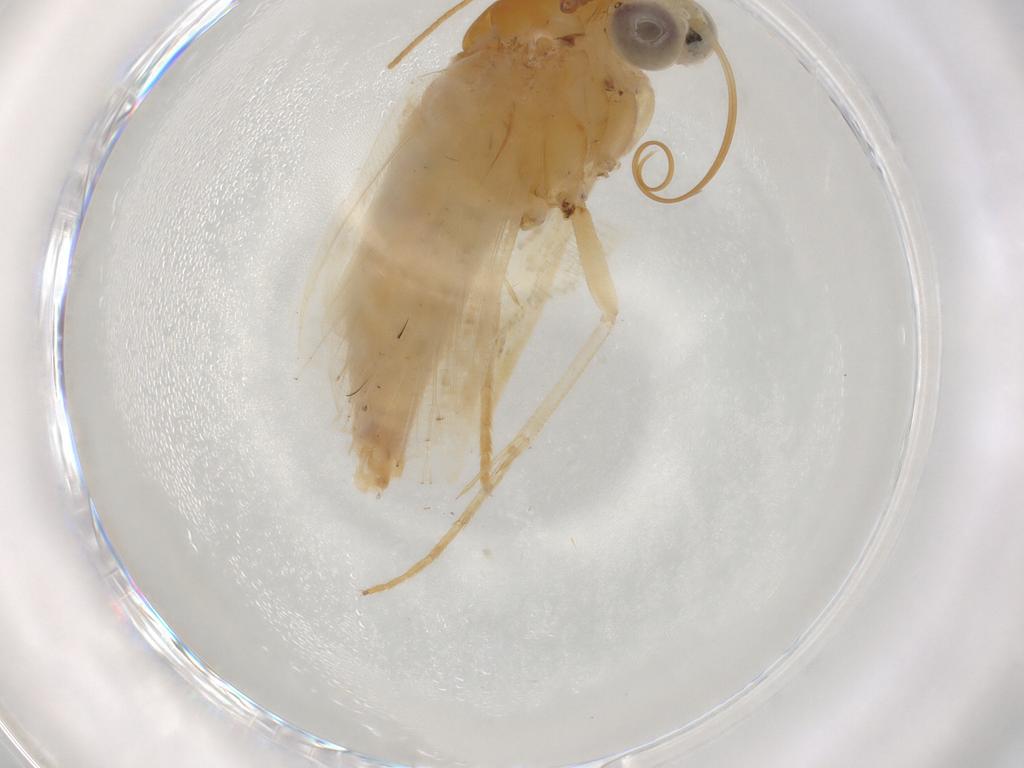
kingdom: Animalia
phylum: Arthropoda
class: Insecta
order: Lepidoptera
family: Noctuidae
